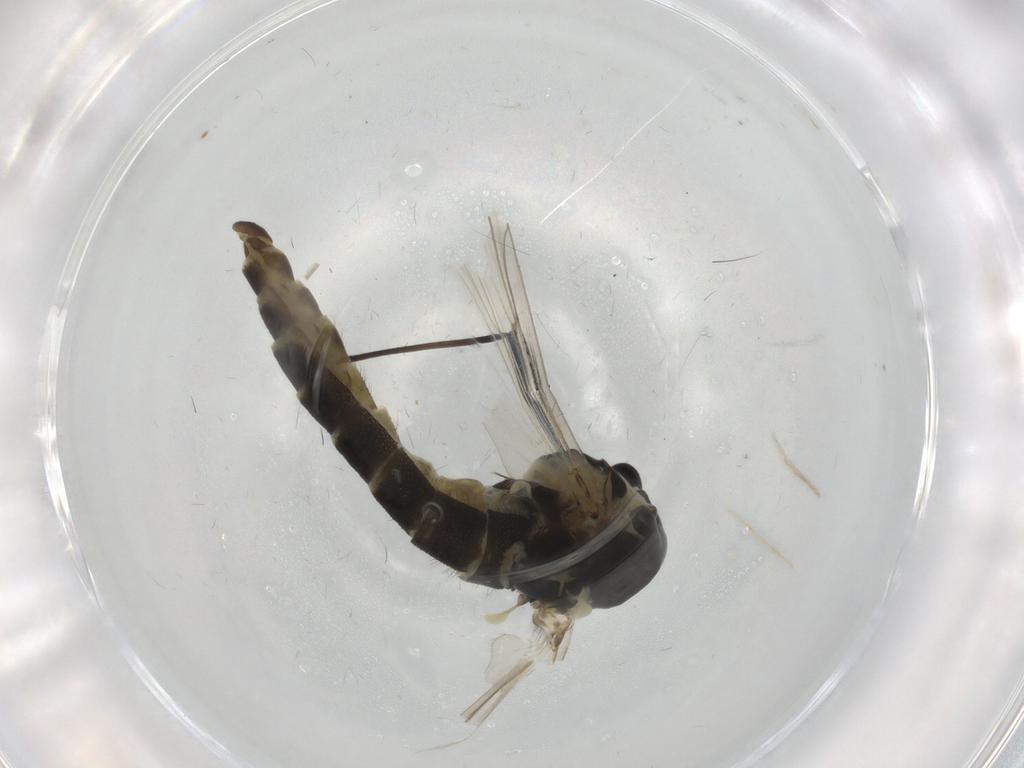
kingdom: Animalia
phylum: Arthropoda
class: Insecta
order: Diptera
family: Lauxaniidae
